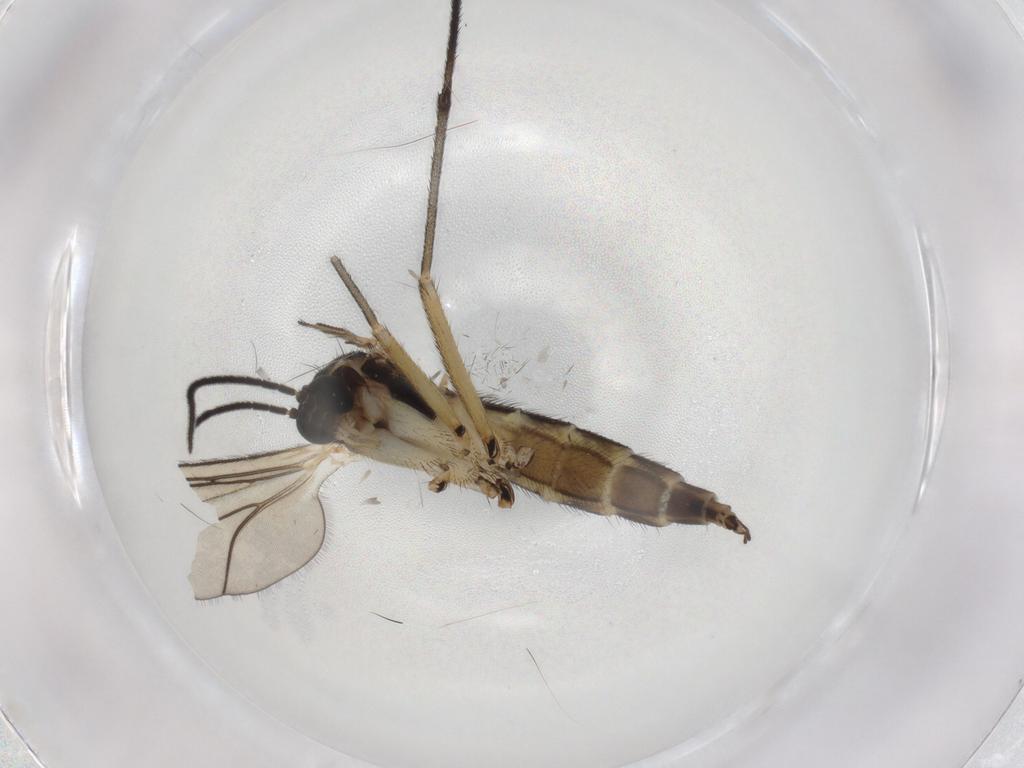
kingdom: Animalia
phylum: Arthropoda
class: Insecta
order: Diptera
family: Sciaridae
